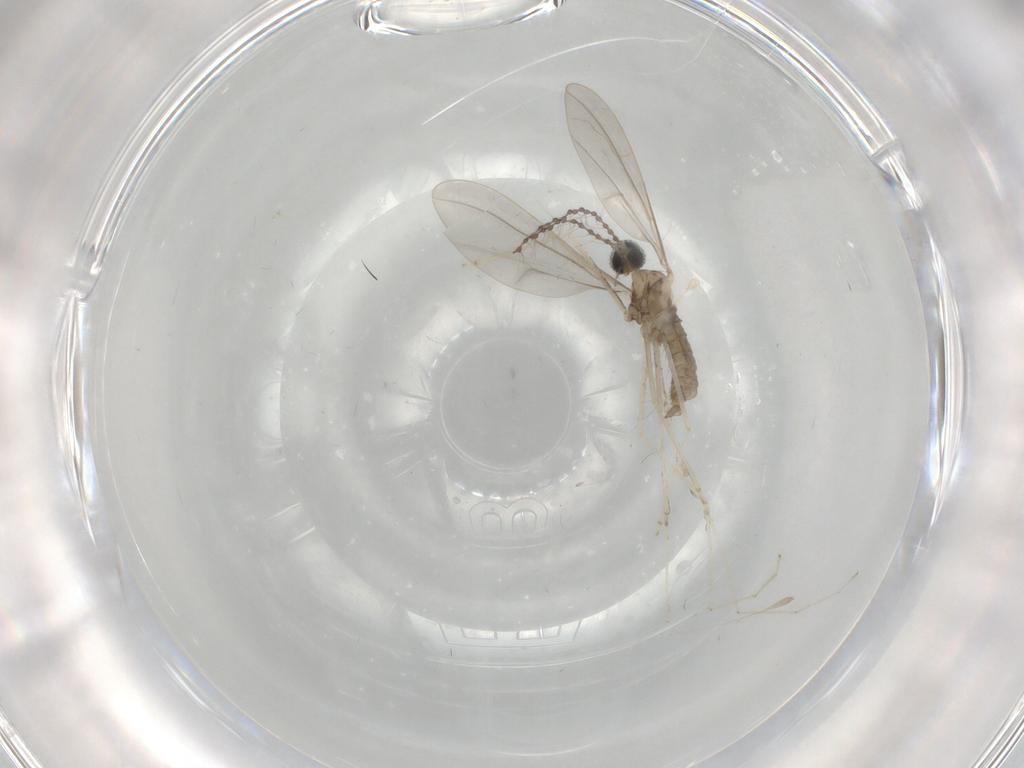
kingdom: Animalia
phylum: Arthropoda
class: Insecta
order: Diptera
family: Cecidomyiidae
